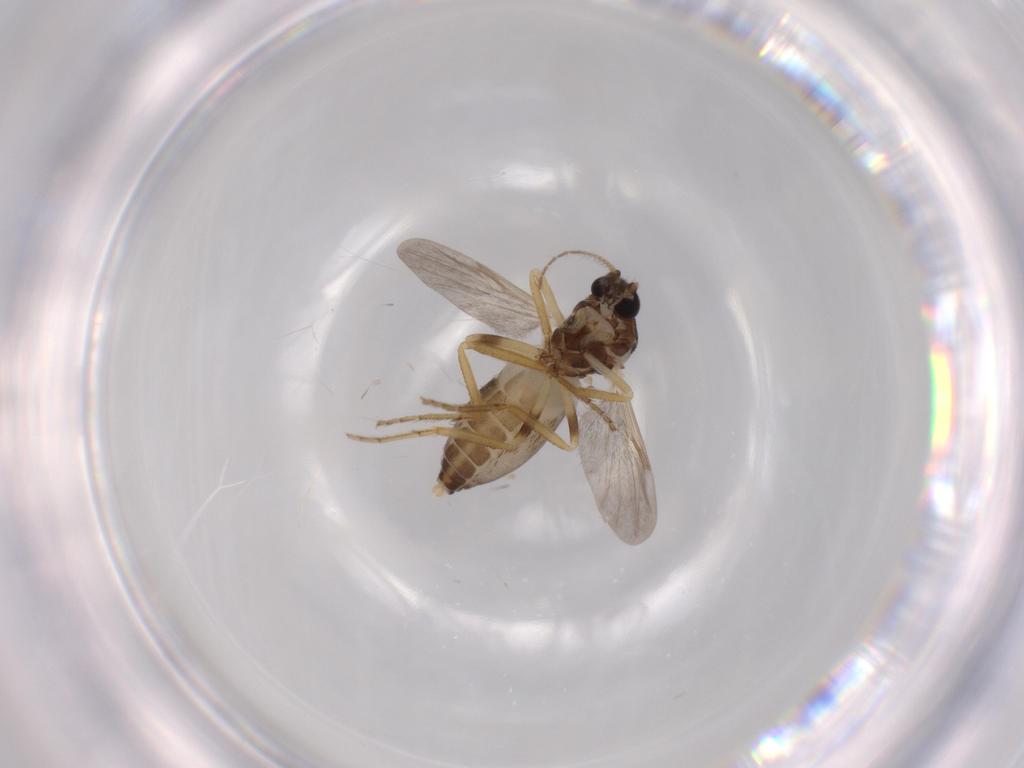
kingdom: Animalia
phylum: Arthropoda
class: Insecta
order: Diptera
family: Ceratopogonidae
